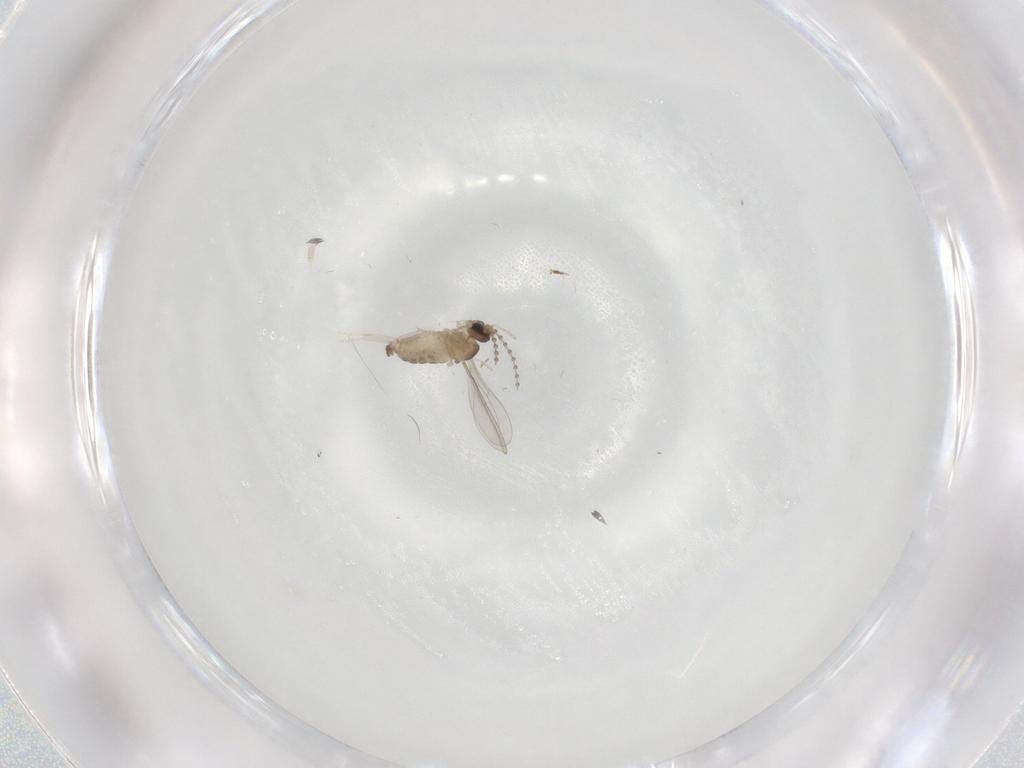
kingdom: Animalia
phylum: Arthropoda
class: Insecta
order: Diptera
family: Cecidomyiidae
